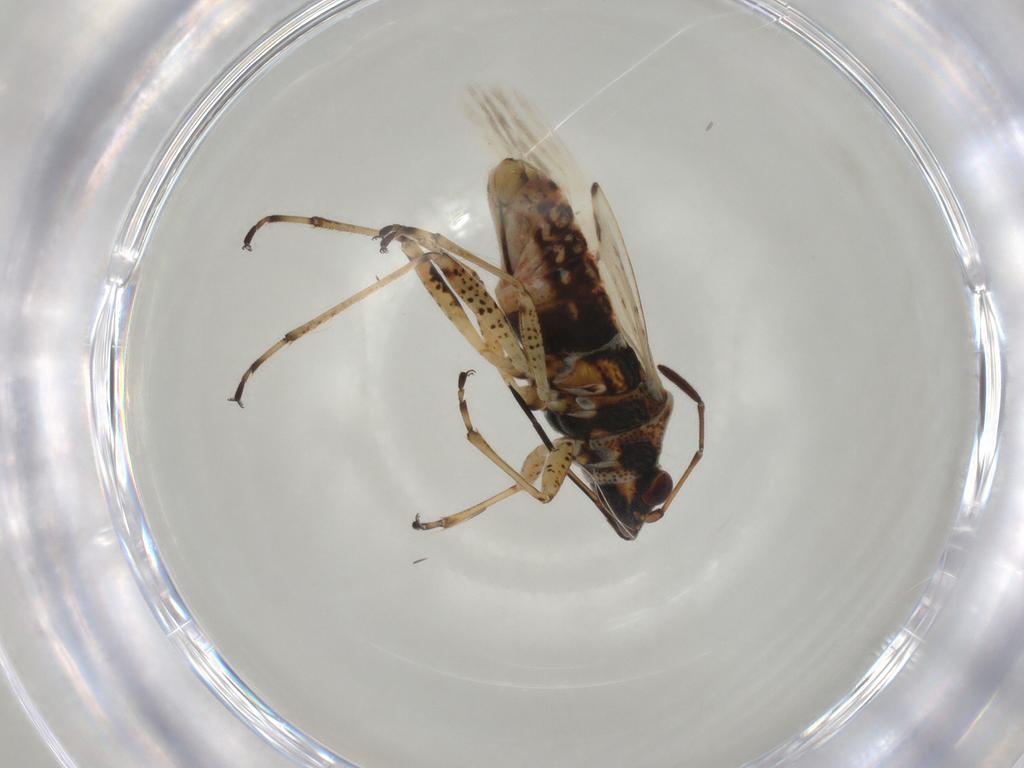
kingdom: Animalia
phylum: Arthropoda
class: Insecta
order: Hemiptera
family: Lygaeidae
